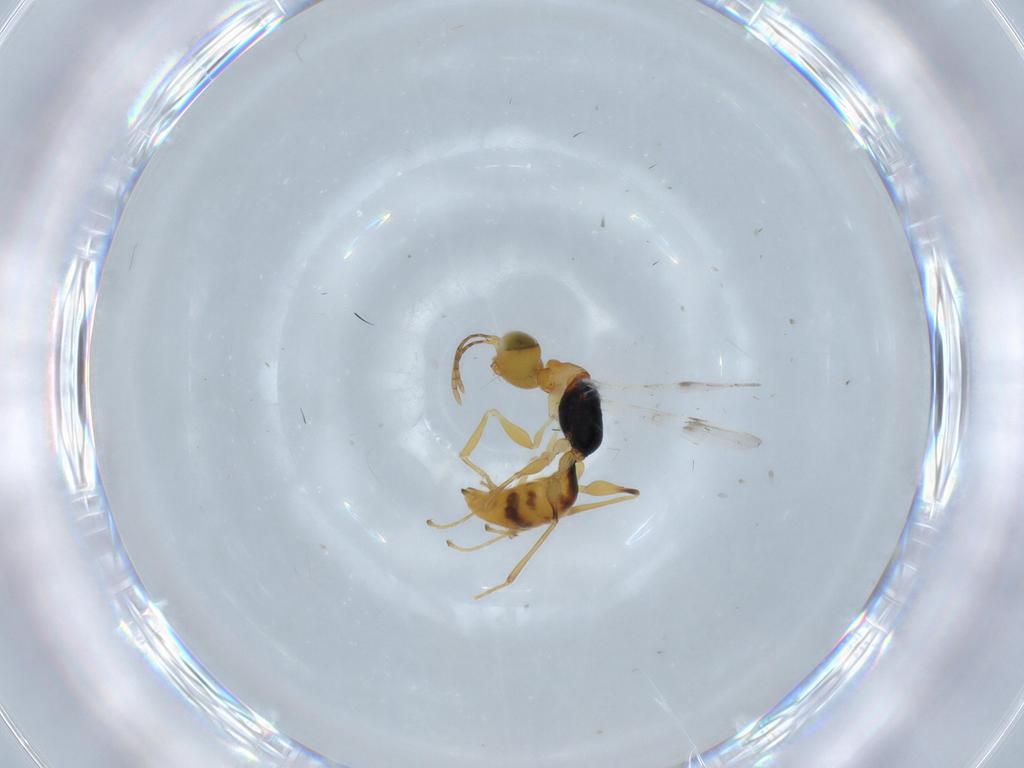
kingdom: Animalia
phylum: Arthropoda
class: Insecta
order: Hymenoptera
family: Dryinidae
